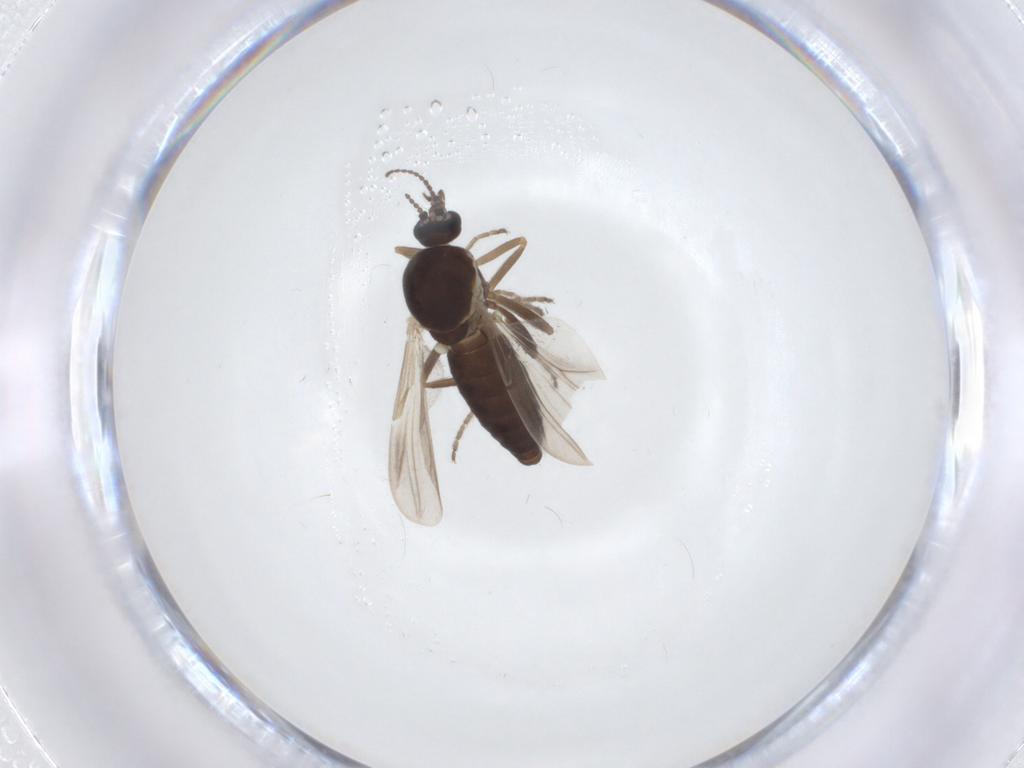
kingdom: Animalia
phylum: Arthropoda
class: Insecta
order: Diptera
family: Ceratopogonidae
